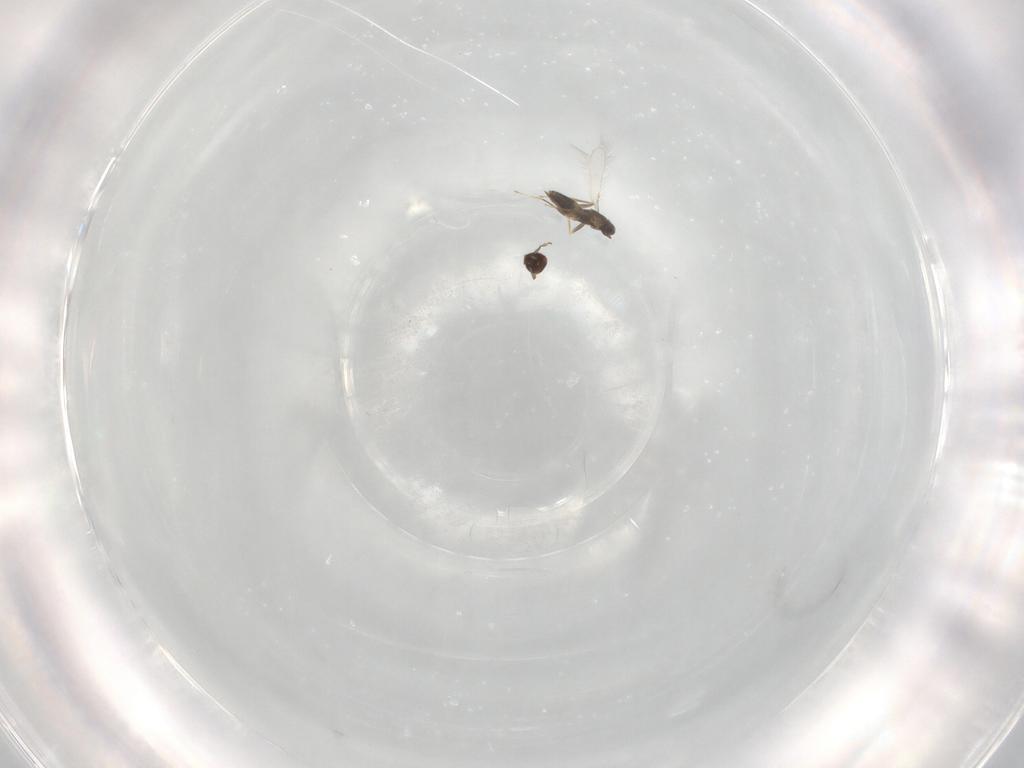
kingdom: Animalia
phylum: Arthropoda
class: Insecta
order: Hymenoptera
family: Mymaridae
